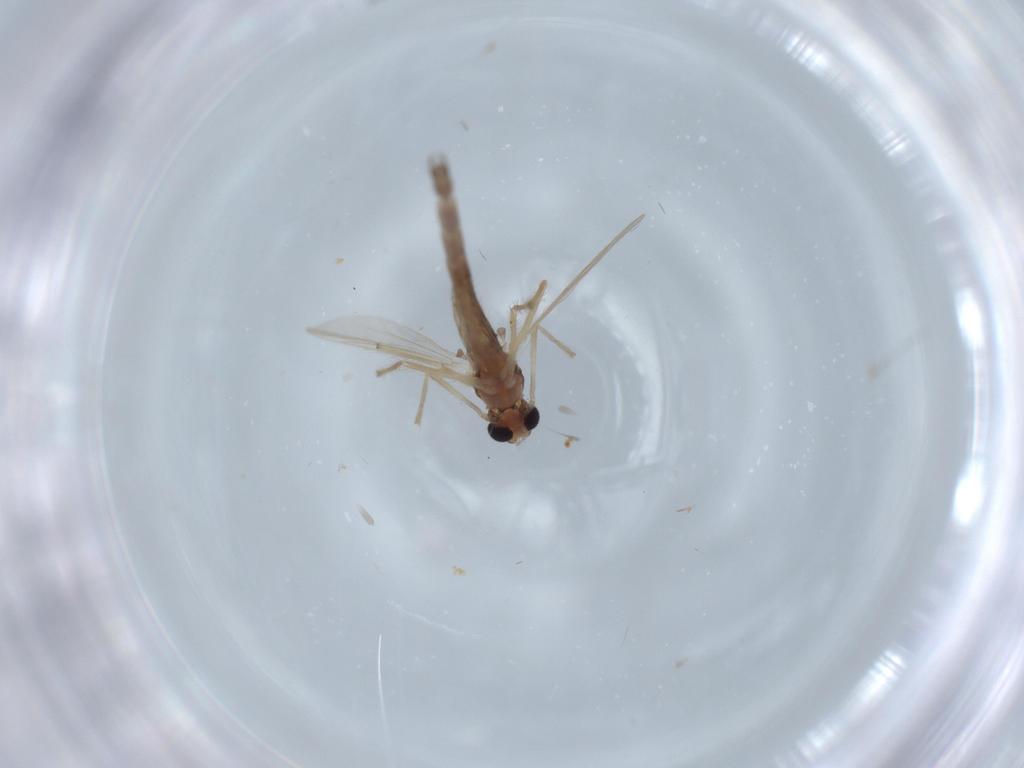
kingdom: Animalia
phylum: Arthropoda
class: Insecta
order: Diptera
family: Chironomidae
